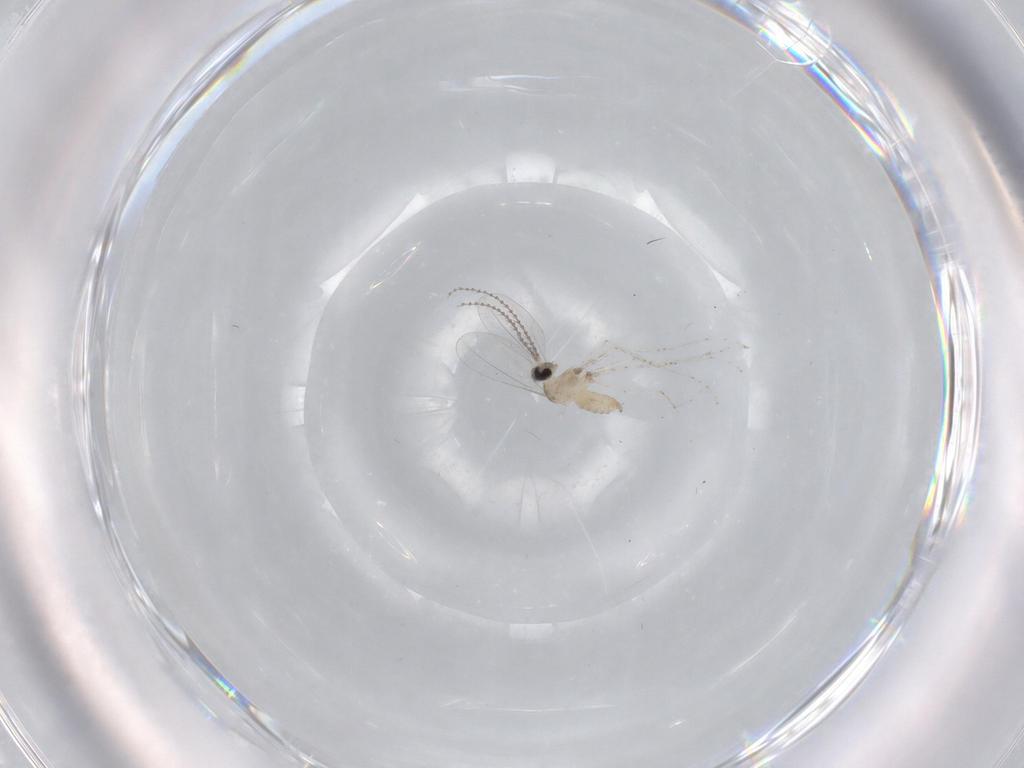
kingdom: Animalia
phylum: Arthropoda
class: Insecta
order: Diptera
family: Cecidomyiidae
